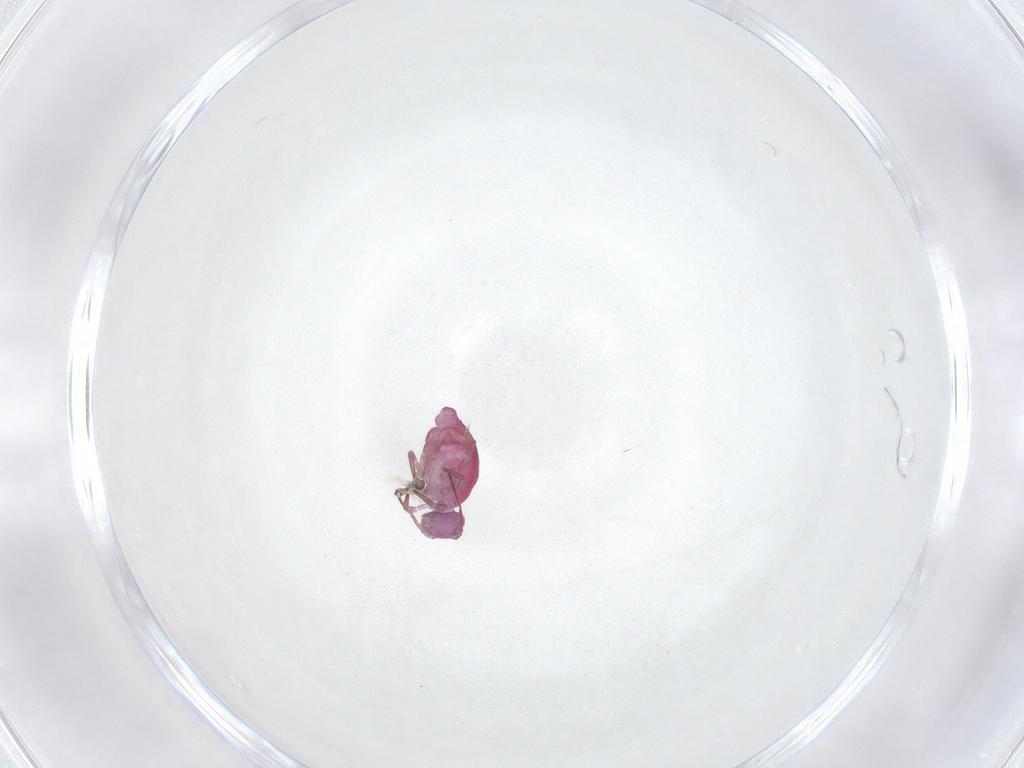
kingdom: Animalia
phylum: Arthropoda
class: Collembola
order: Symphypleona
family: Sminthuridae
